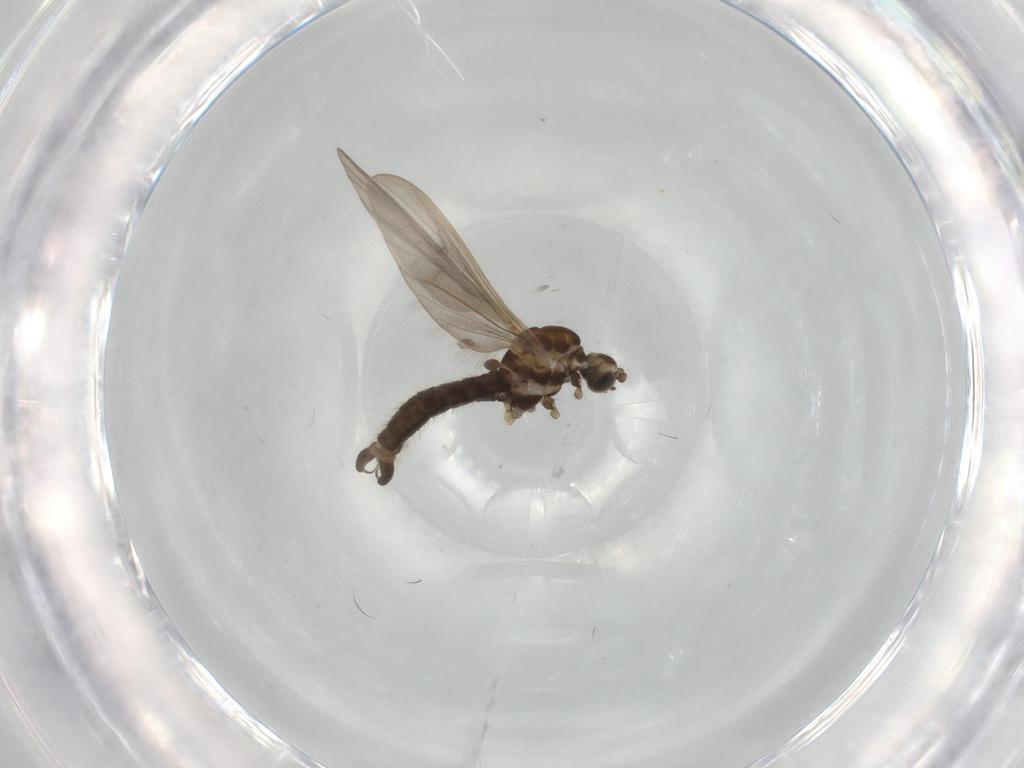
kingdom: Animalia
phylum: Arthropoda
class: Insecta
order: Diptera
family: Limoniidae
